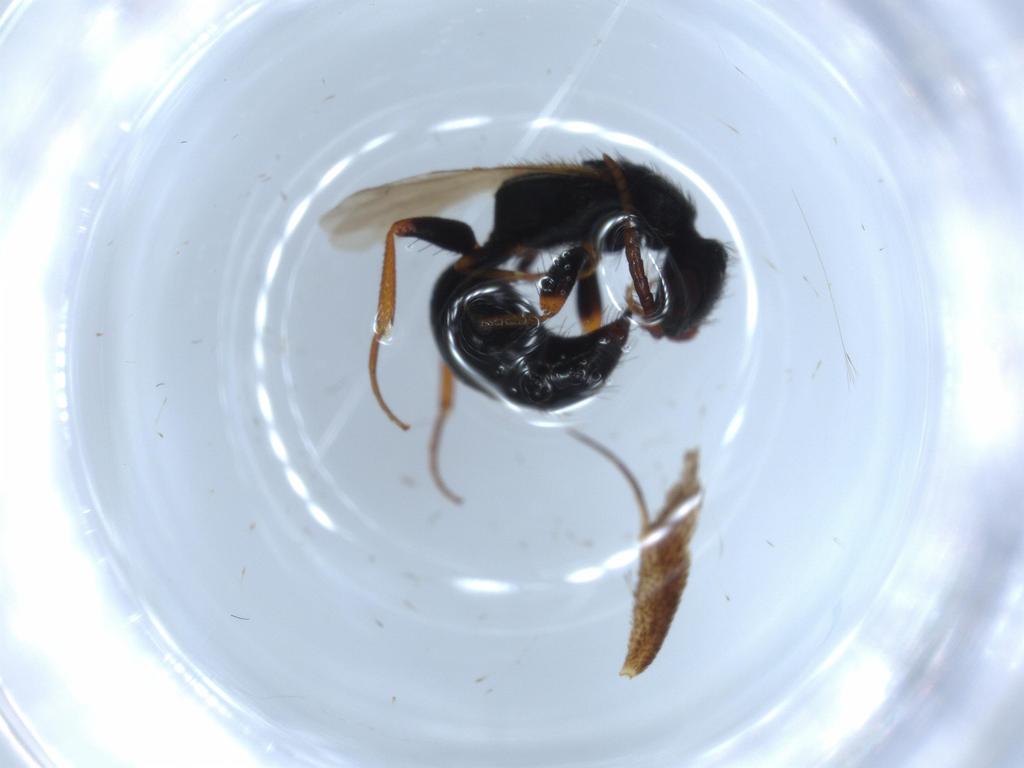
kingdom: Animalia
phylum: Arthropoda
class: Insecta
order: Hymenoptera
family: Bethylidae
